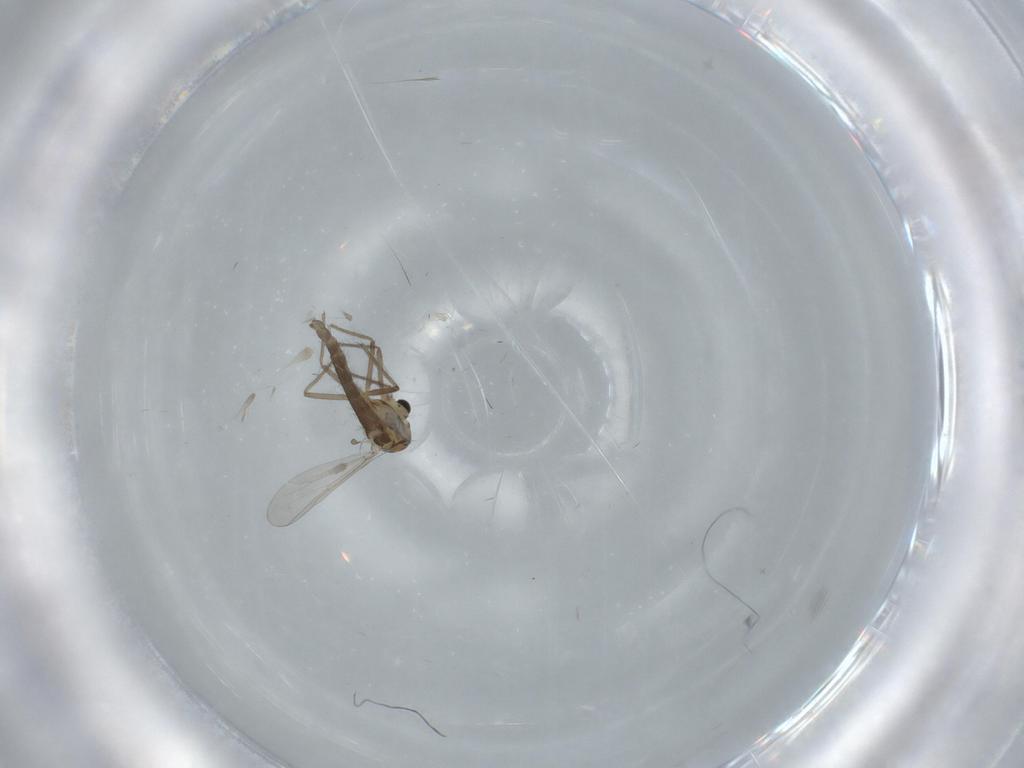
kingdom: Animalia
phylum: Arthropoda
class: Insecta
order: Diptera
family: Chironomidae
